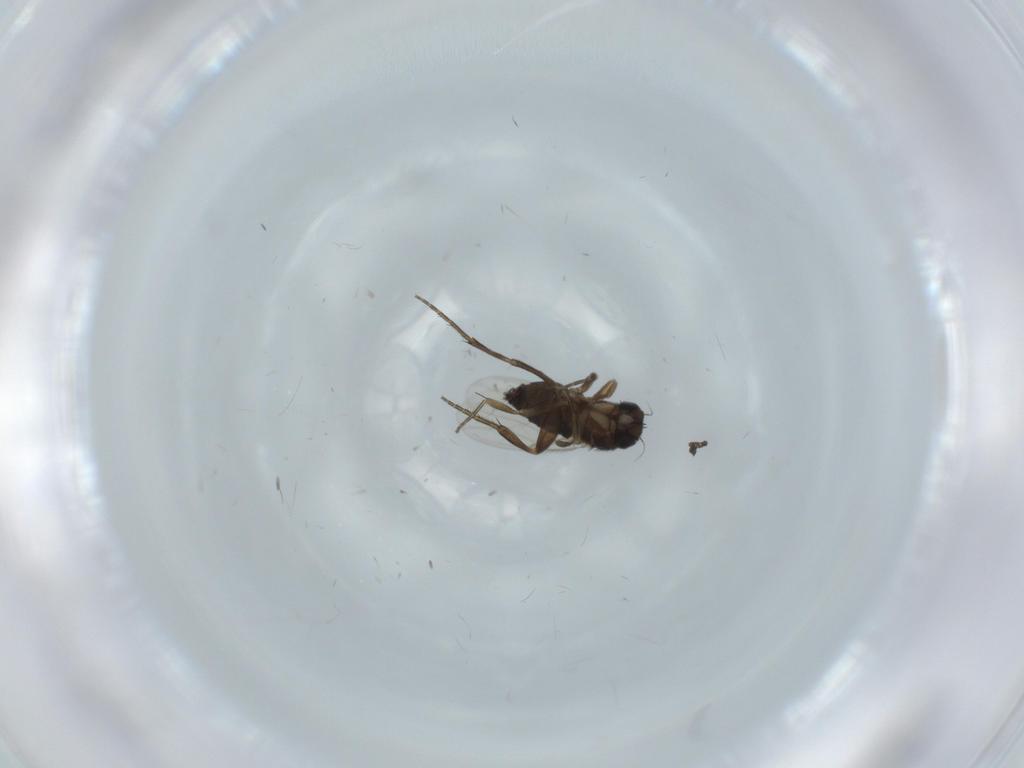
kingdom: Animalia
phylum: Arthropoda
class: Insecta
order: Diptera
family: Phoridae
